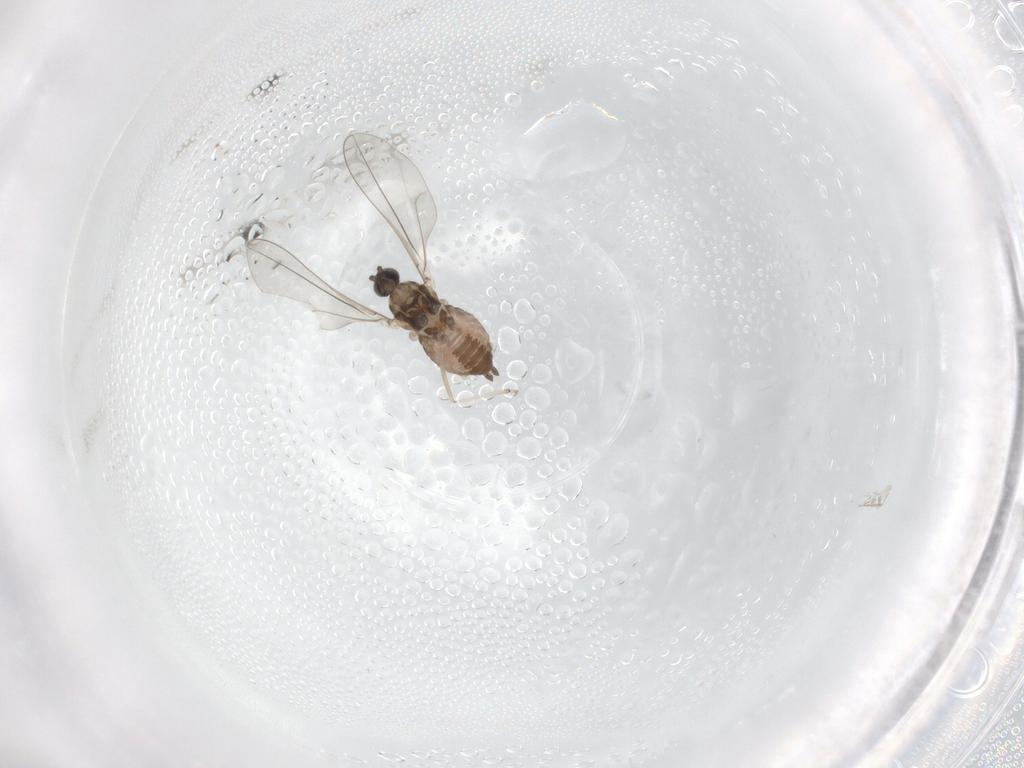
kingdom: Animalia
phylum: Arthropoda
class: Insecta
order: Diptera
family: Cecidomyiidae
